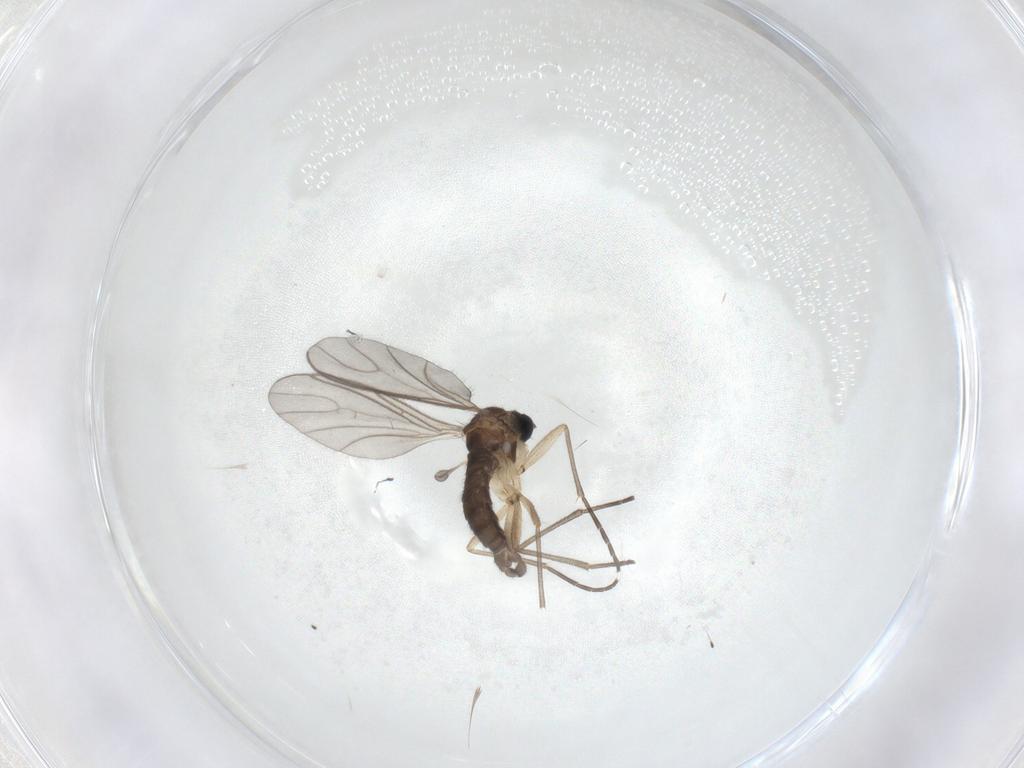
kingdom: Animalia
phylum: Arthropoda
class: Insecta
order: Diptera
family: Sciaridae
